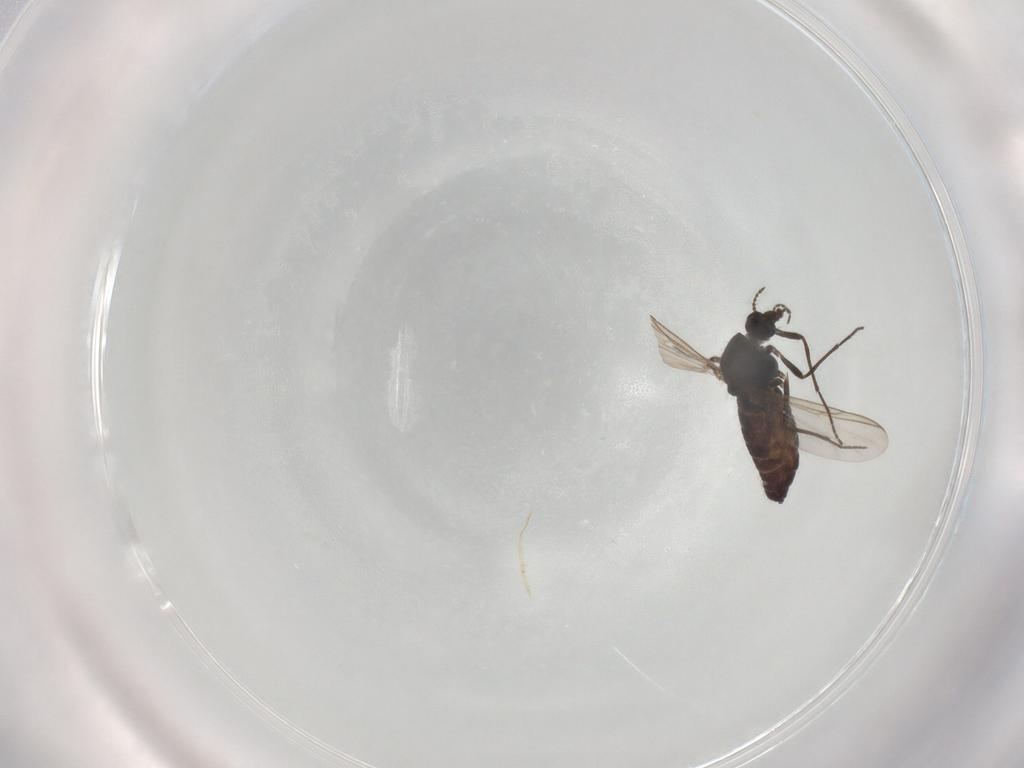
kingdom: Animalia
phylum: Arthropoda
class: Insecta
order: Diptera
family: Chironomidae
